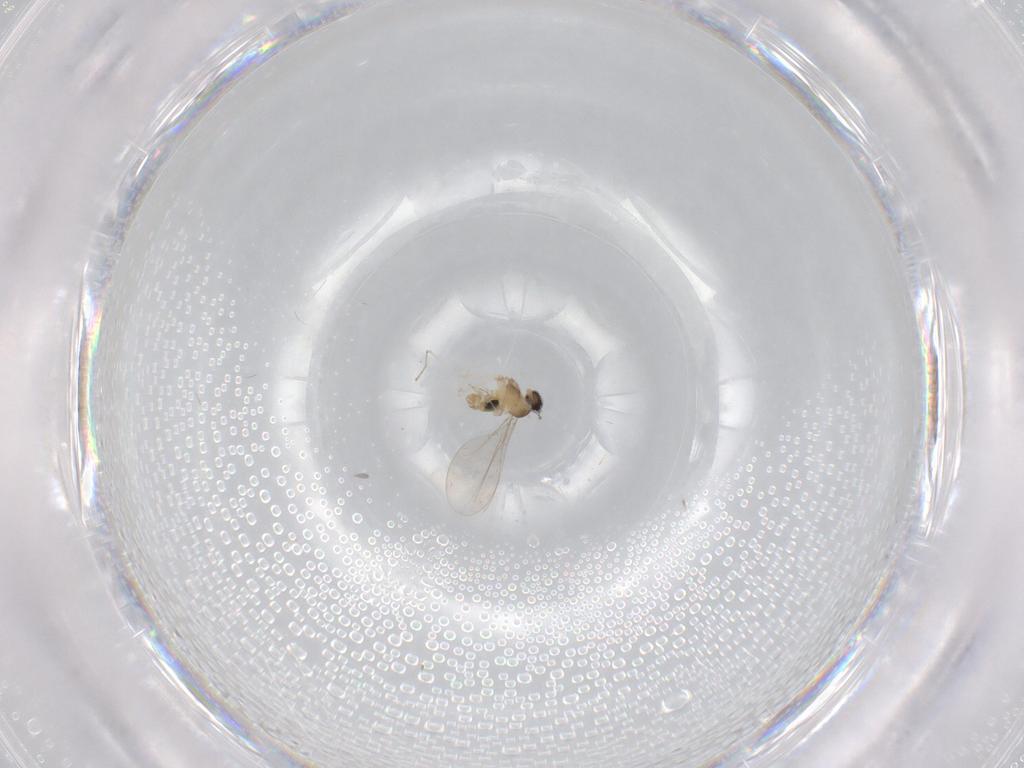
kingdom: Animalia
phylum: Arthropoda
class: Insecta
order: Diptera
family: Cecidomyiidae
